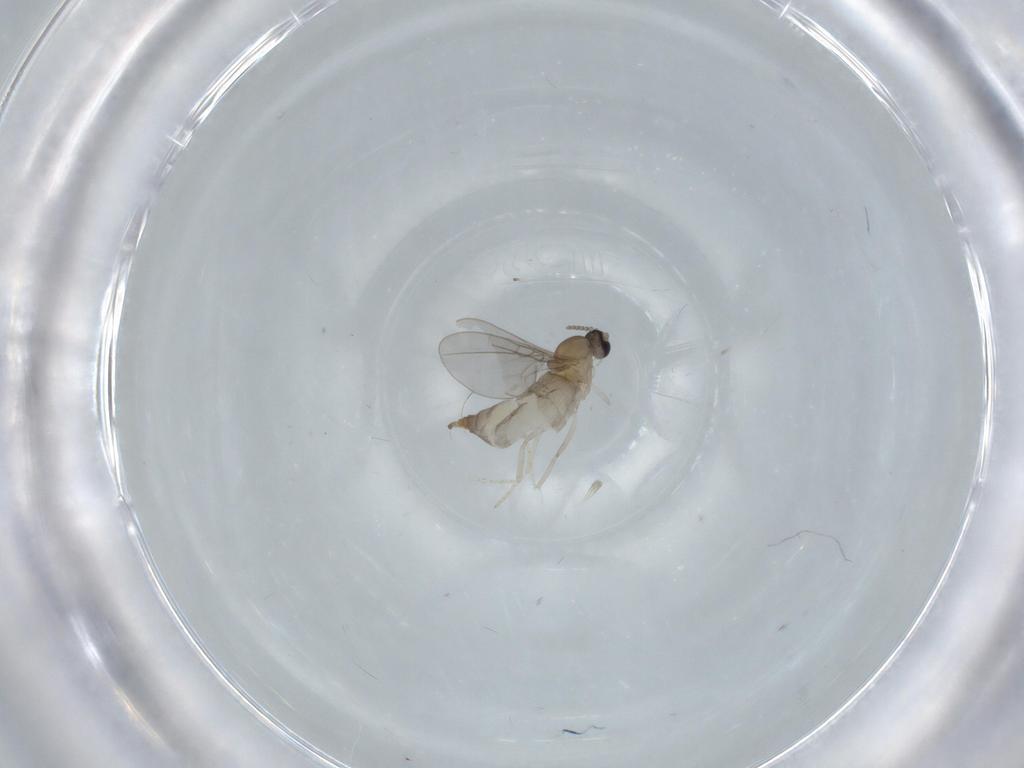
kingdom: Animalia
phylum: Arthropoda
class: Insecta
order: Diptera
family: Cecidomyiidae
